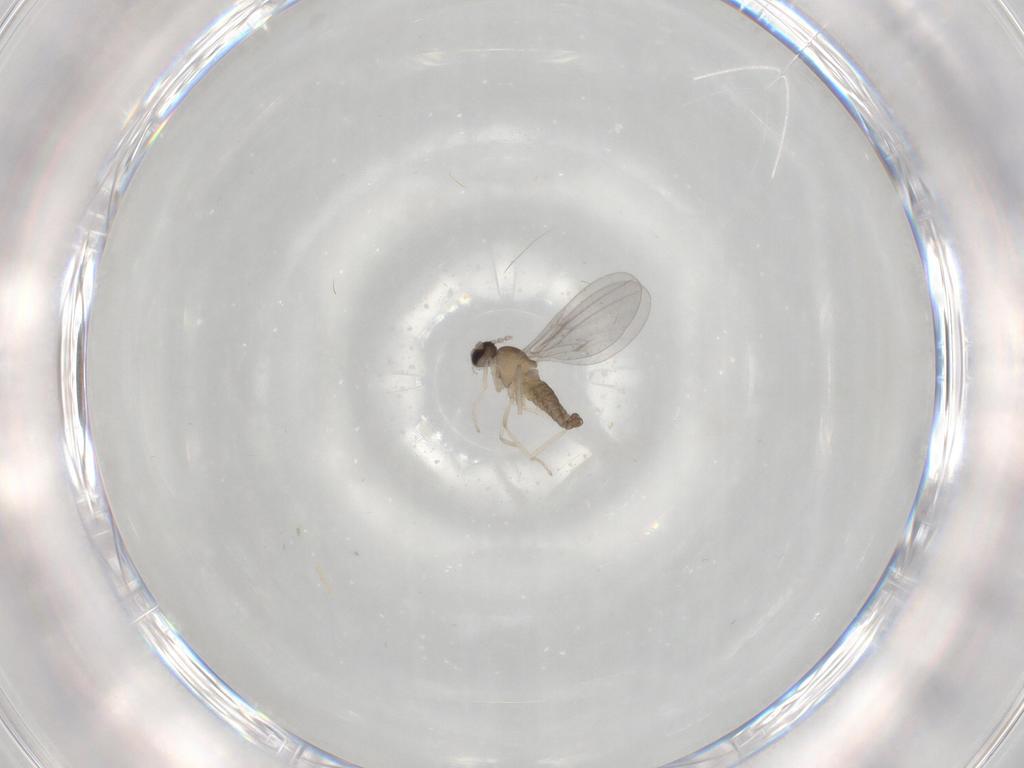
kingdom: Animalia
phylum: Arthropoda
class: Insecta
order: Diptera
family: Cecidomyiidae
